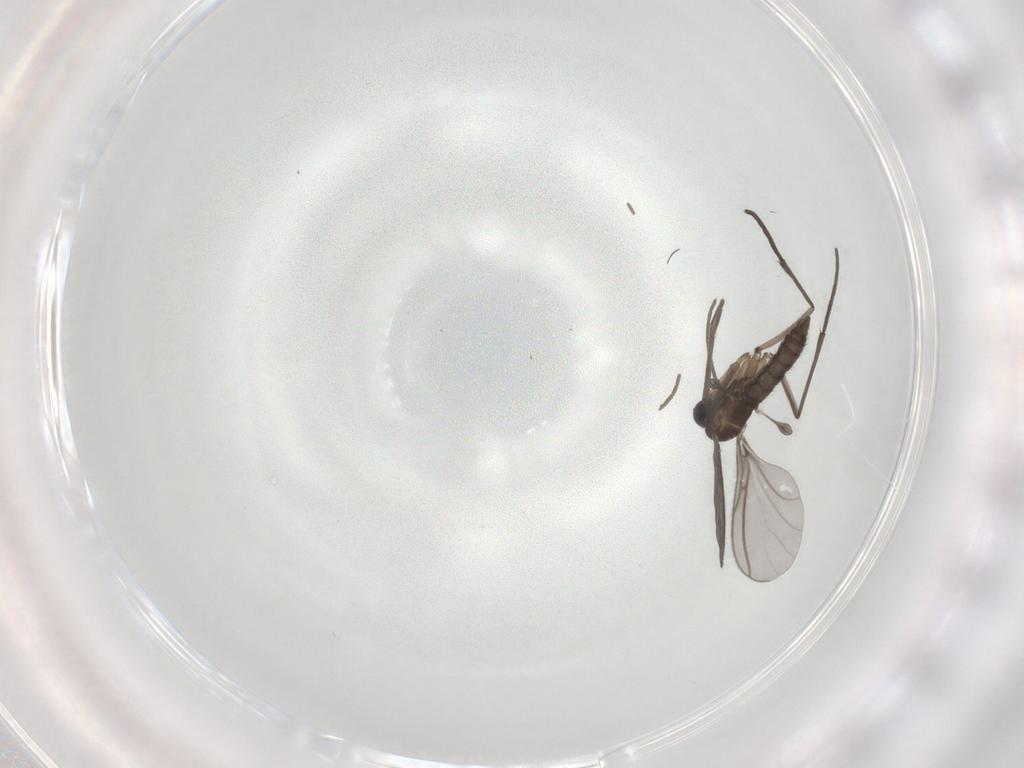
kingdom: Animalia
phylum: Arthropoda
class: Insecta
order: Diptera
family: Sciaridae
